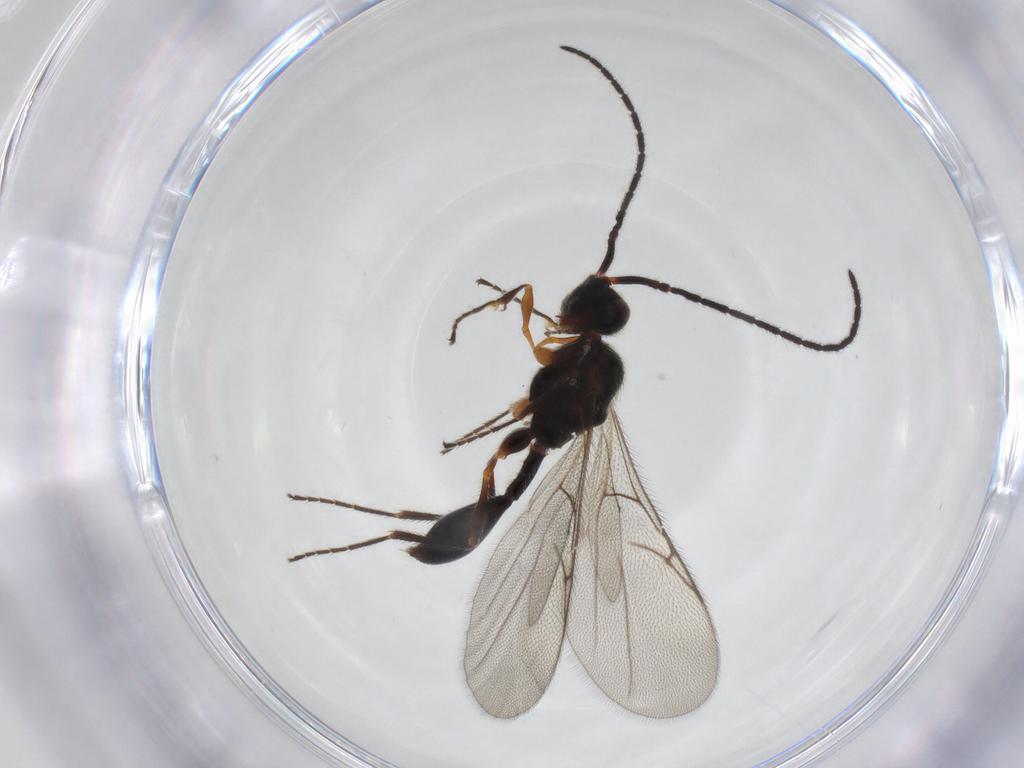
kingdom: Animalia
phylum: Arthropoda
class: Insecta
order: Hymenoptera
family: Diapriidae
